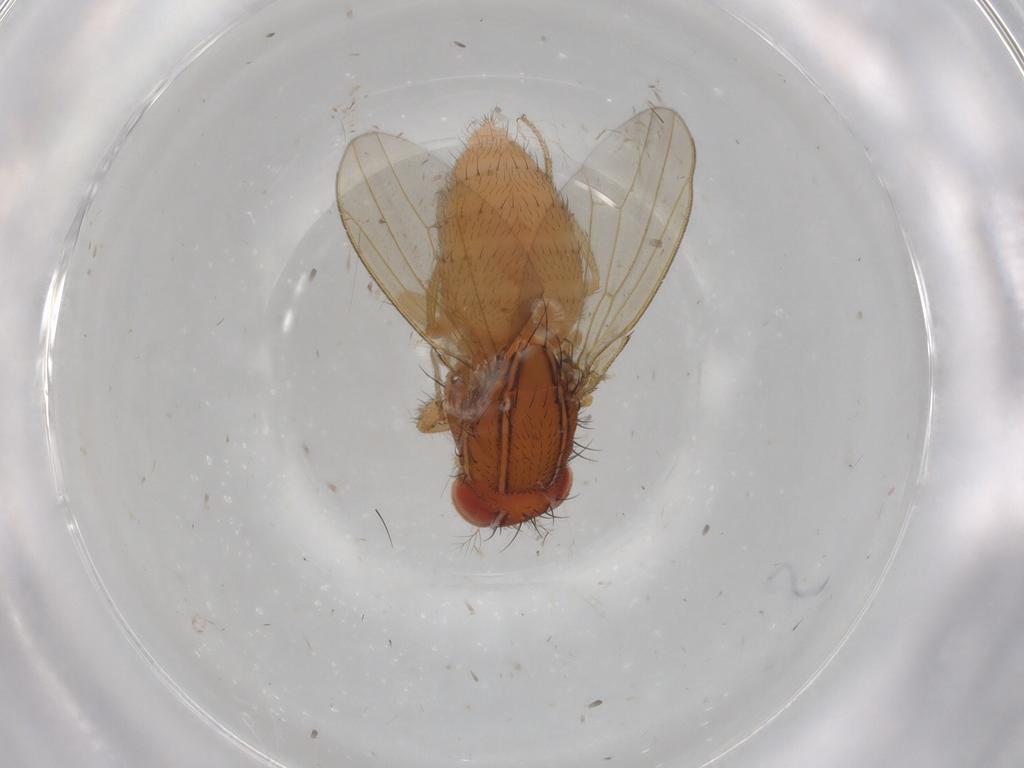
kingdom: Animalia
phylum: Arthropoda
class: Insecta
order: Diptera
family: Drosophilidae
